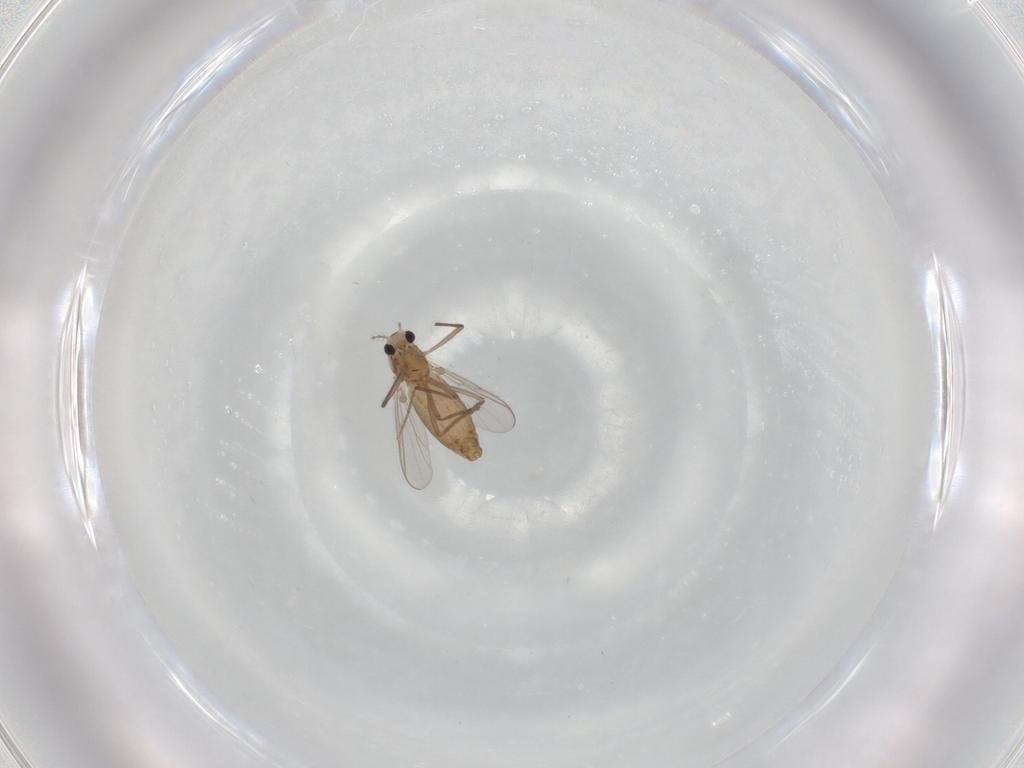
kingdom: Animalia
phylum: Arthropoda
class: Insecta
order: Diptera
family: Chironomidae
